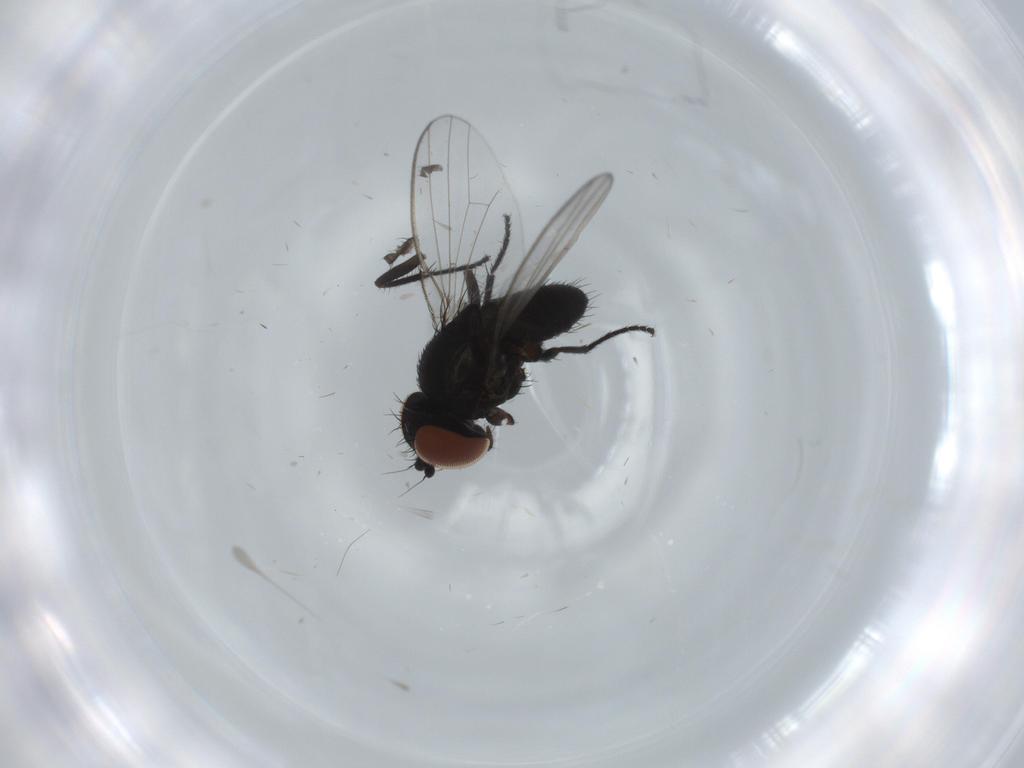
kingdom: Animalia
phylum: Arthropoda
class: Insecta
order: Diptera
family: Milichiidae
